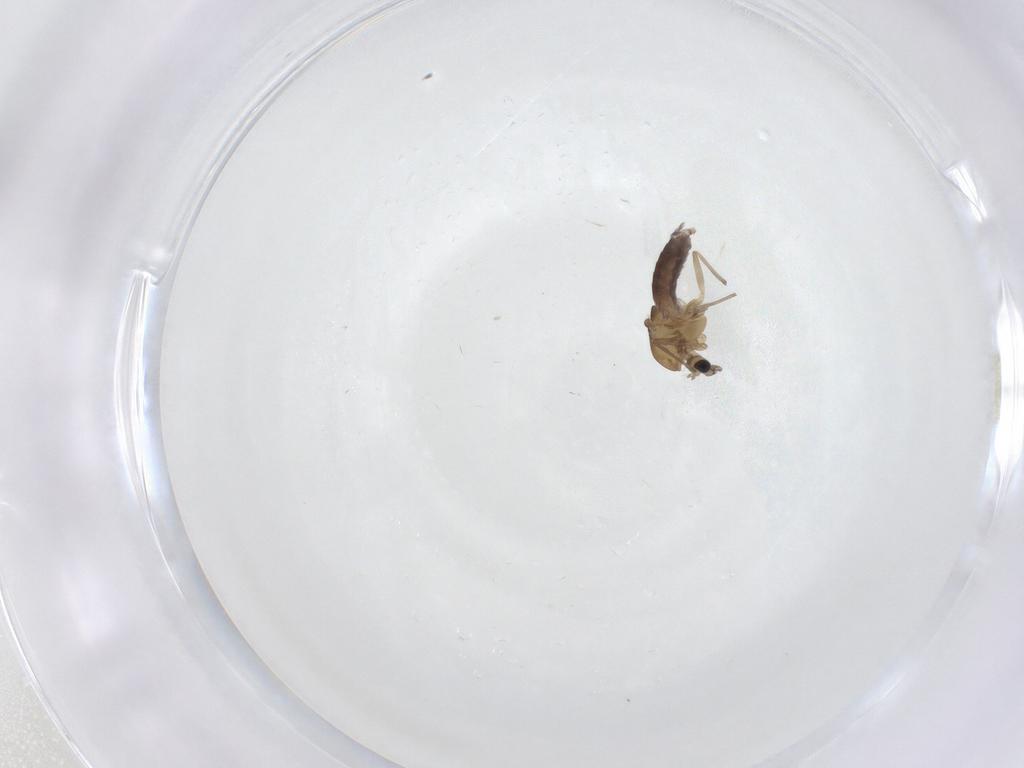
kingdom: Animalia
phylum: Arthropoda
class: Insecta
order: Diptera
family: Chironomidae
